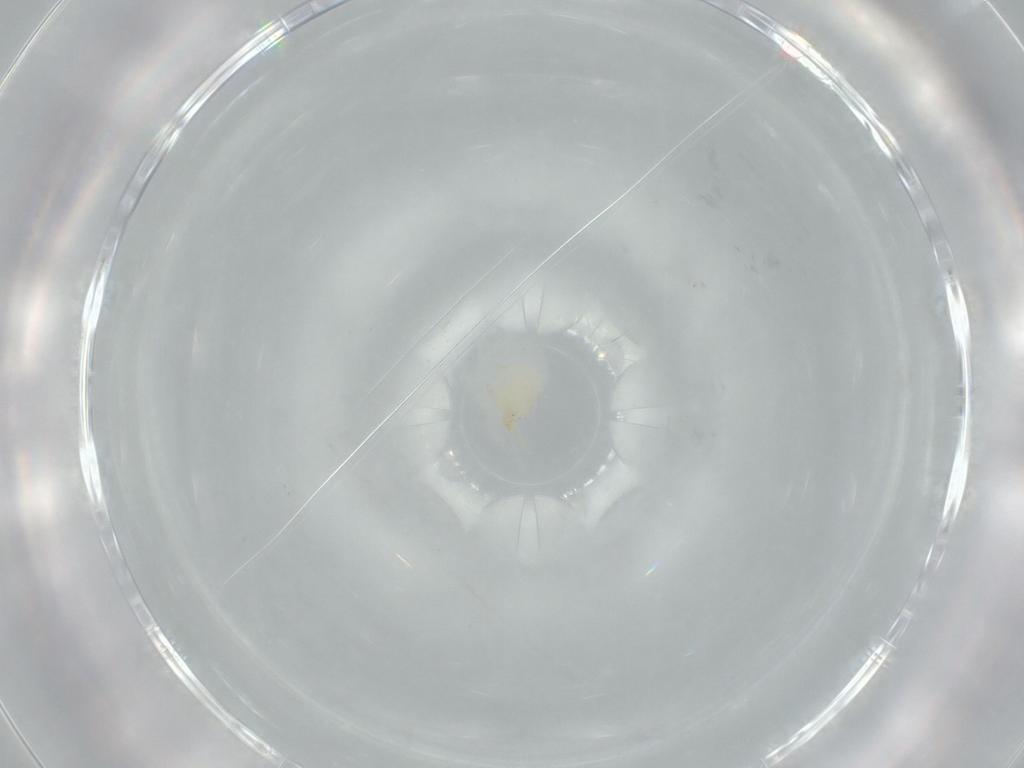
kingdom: Animalia
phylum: Arthropoda
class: Arachnida
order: Trombidiformes
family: Erythraeidae
